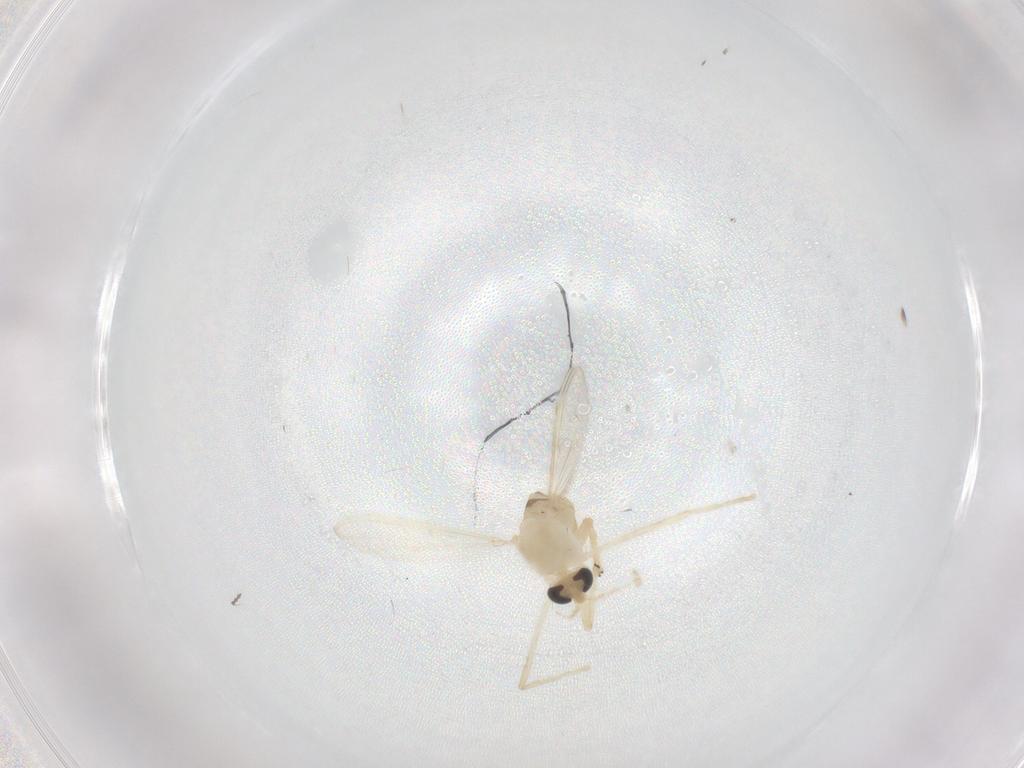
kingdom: Animalia
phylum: Arthropoda
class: Insecta
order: Diptera
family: Chironomidae
